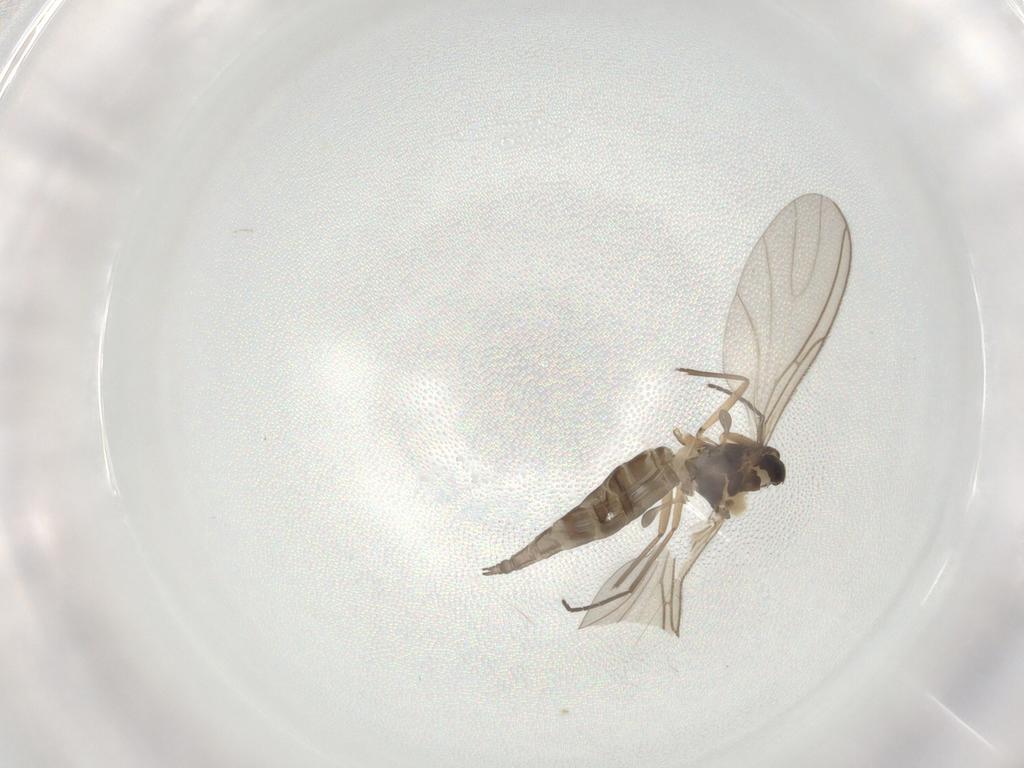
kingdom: Animalia
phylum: Arthropoda
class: Insecta
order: Diptera
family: Sciaridae
